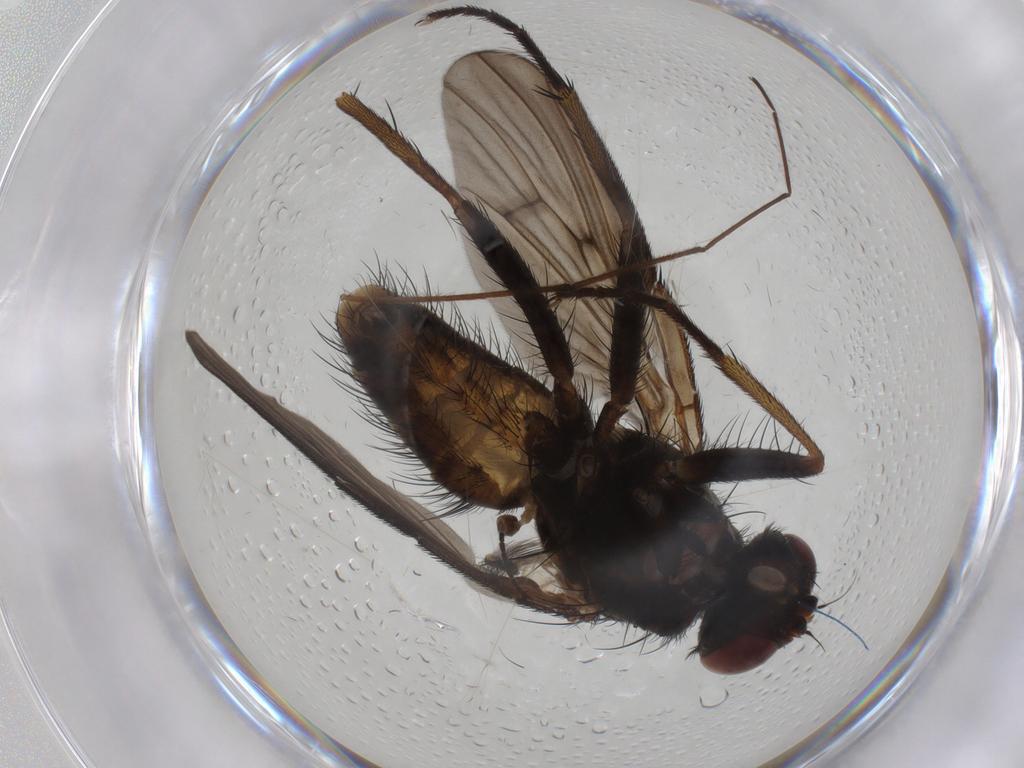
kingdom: Animalia
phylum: Arthropoda
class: Insecta
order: Diptera
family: Muscidae
